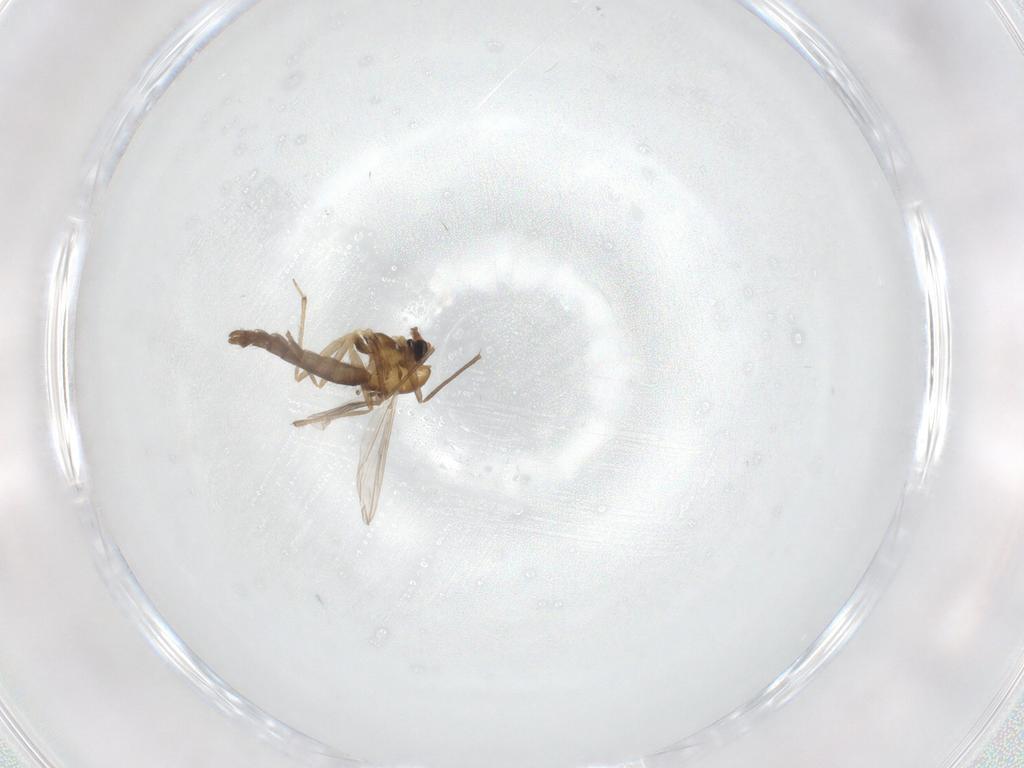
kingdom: Animalia
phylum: Arthropoda
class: Insecta
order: Diptera
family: Chironomidae
